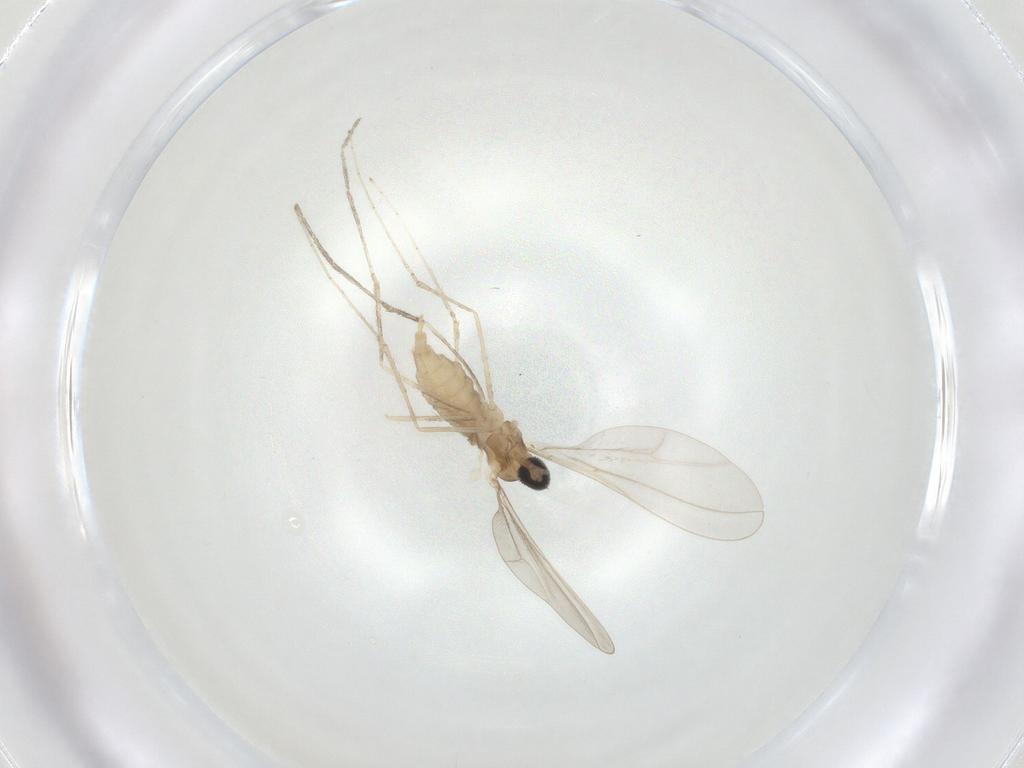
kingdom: Animalia
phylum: Arthropoda
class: Insecta
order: Diptera
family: Cecidomyiidae
